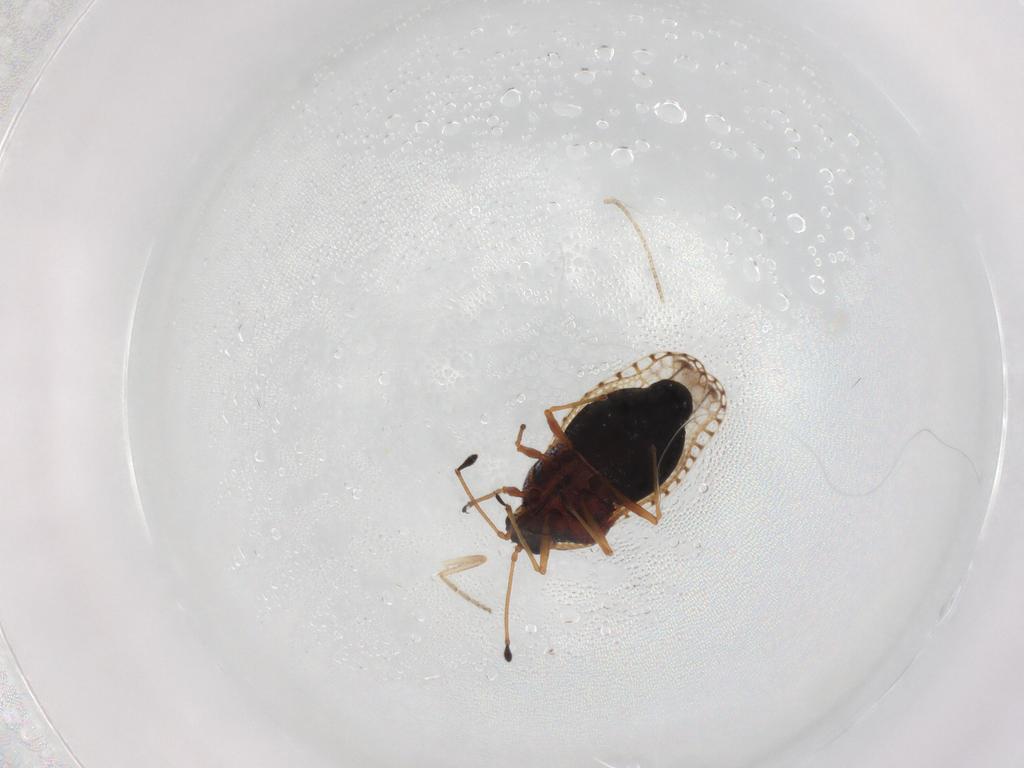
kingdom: Animalia
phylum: Arthropoda
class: Insecta
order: Hemiptera
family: Tingidae
